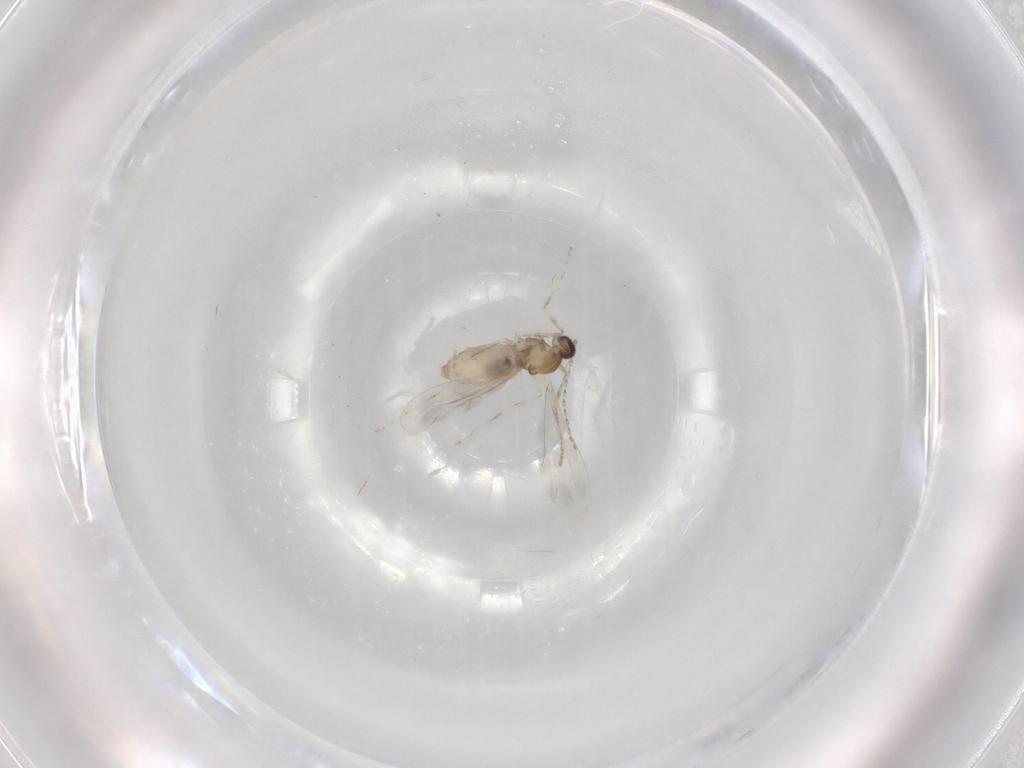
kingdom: Animalia
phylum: Arthropoda
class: Insecta
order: Diptera
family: Cecidomyiidae
